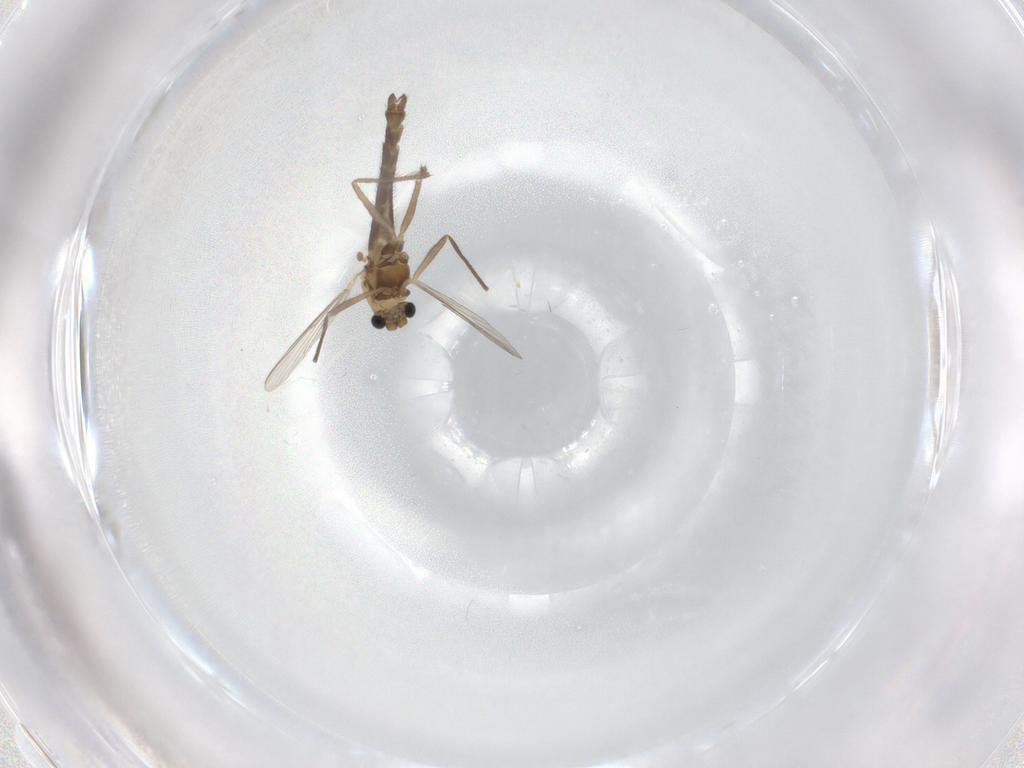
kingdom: Animalia
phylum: Arthropoda
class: Insecta
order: Diptera
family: Chironomidae
